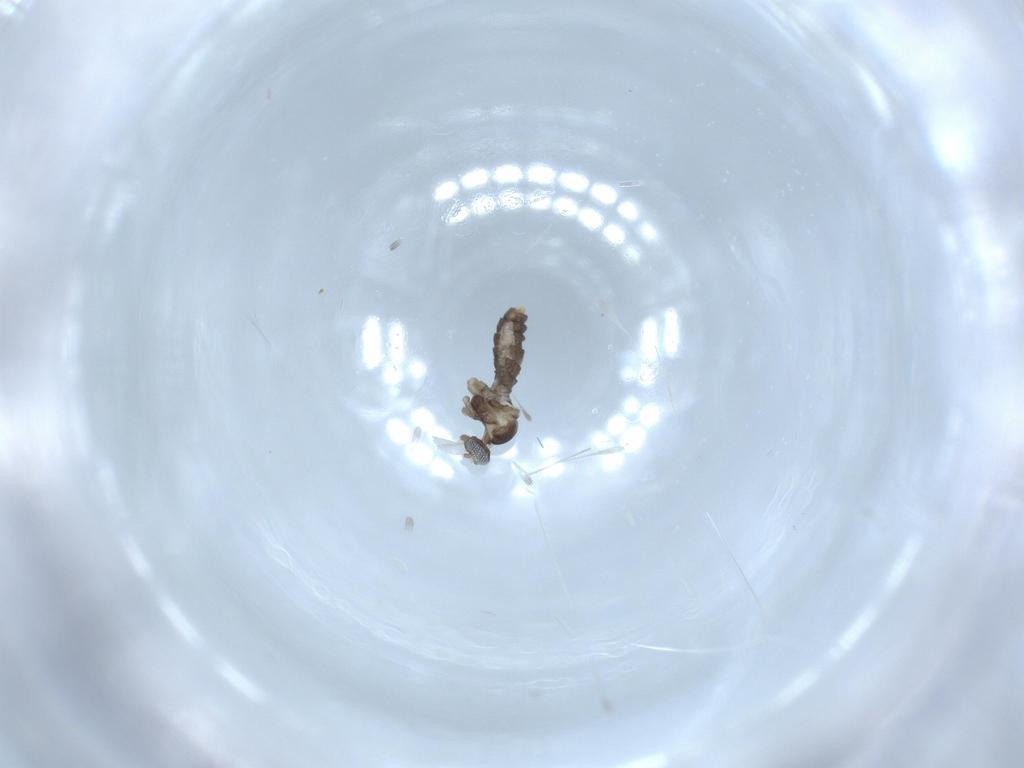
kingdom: Animalia
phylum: Arthropoda
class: Insecta
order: Diptera
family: Cecidomyiidae
